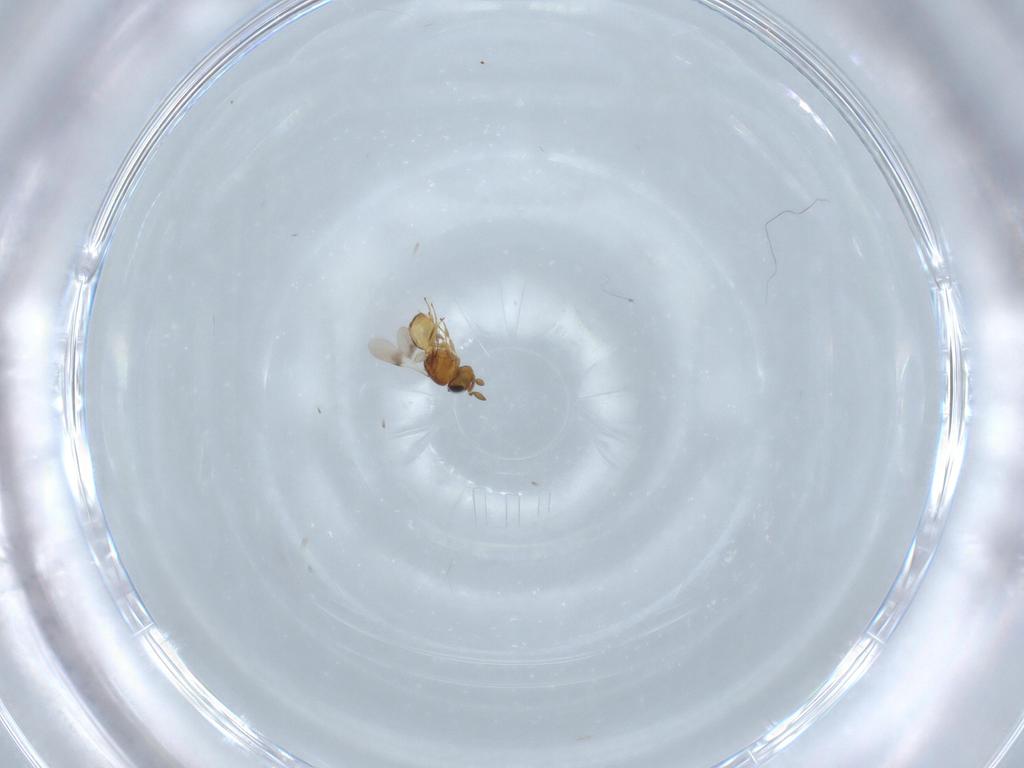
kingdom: Animalia
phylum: Arthropoda
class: Insecta
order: Hymenoptera
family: Scelionidae
